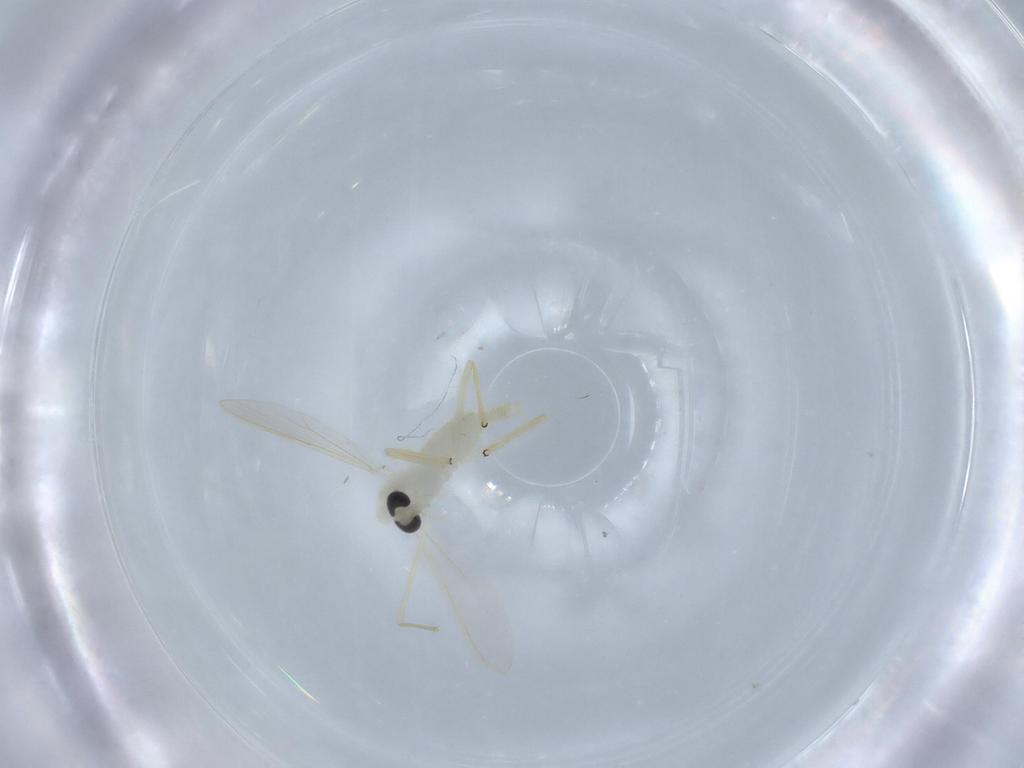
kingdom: Animalia
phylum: Arthropoda
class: Insecta
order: Diptera
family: Chironomidae
